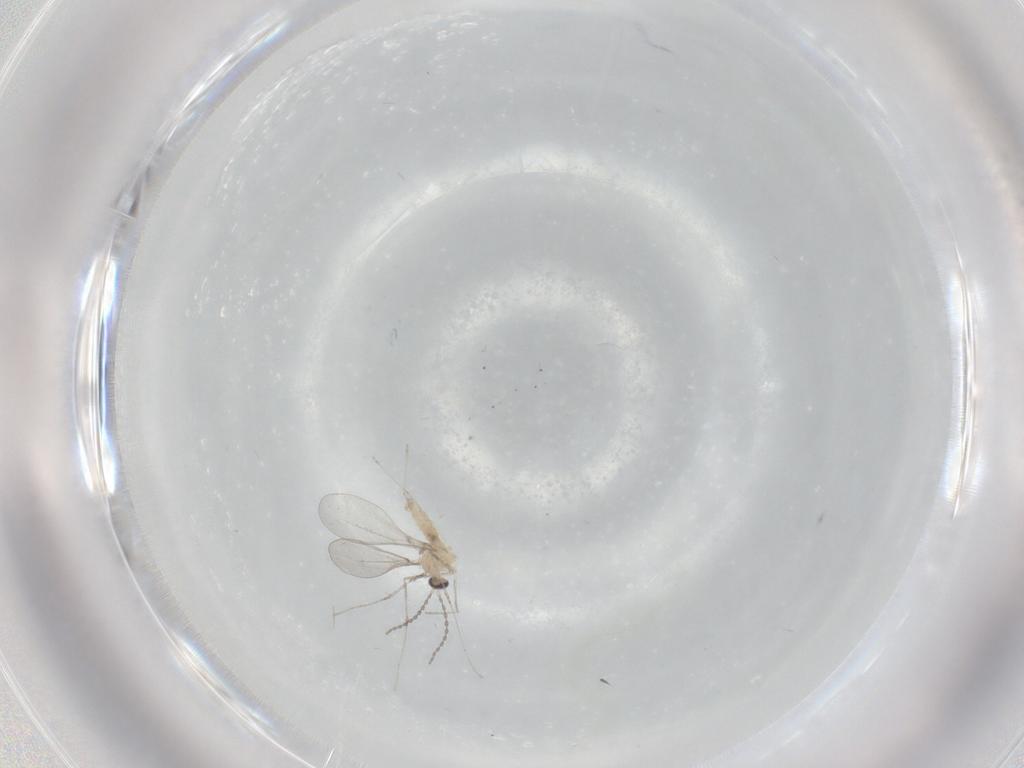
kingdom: Animalia
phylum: Arthropoda
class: Insecta
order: Diptera
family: Cecidomyiidae
